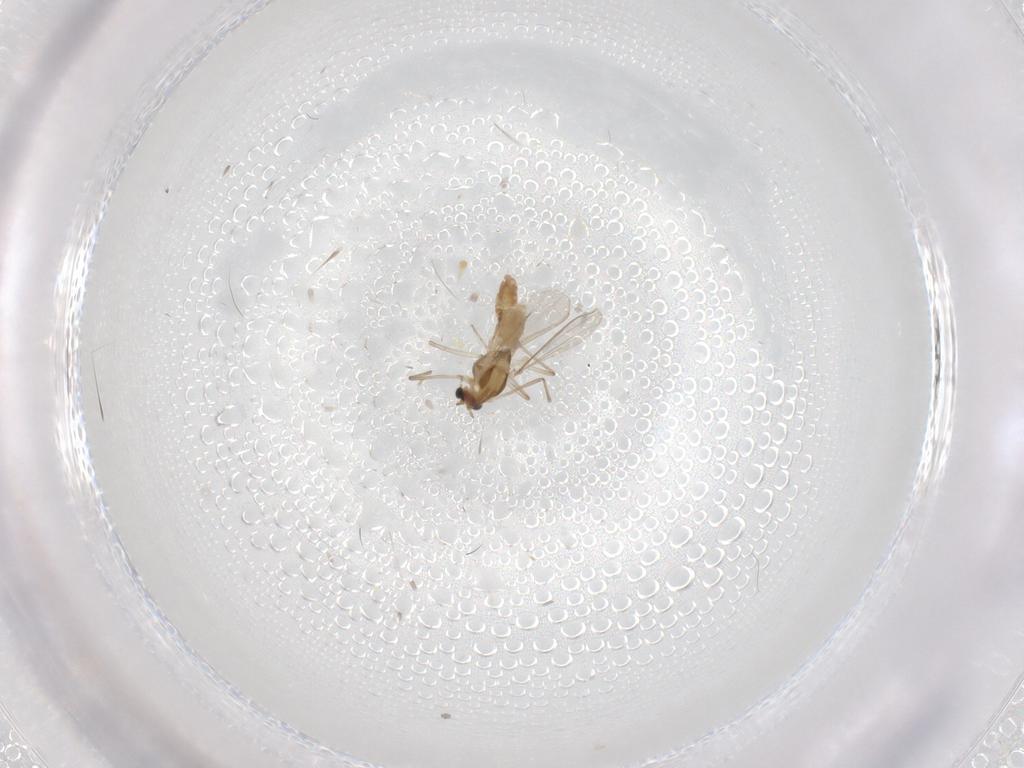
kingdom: Animalia
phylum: Arthropoda
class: Insecta
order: Diptera
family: Chironomidae
